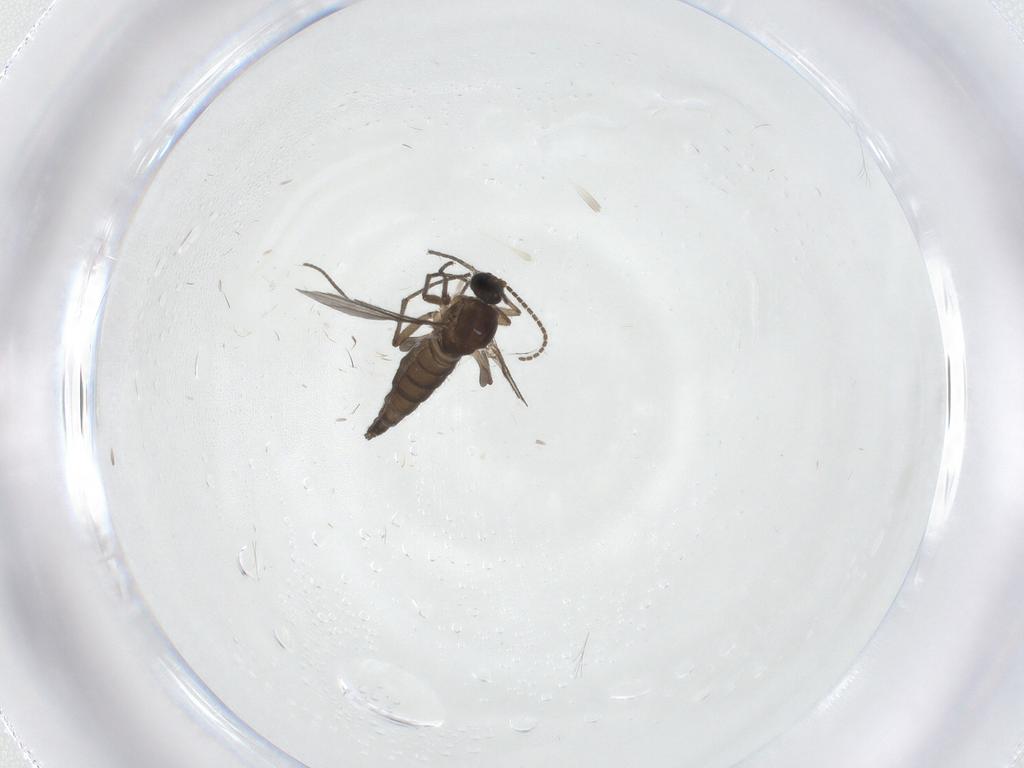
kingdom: Animalia
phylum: Arthropoda
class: Insecta
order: Diptera
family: Sciaridae
